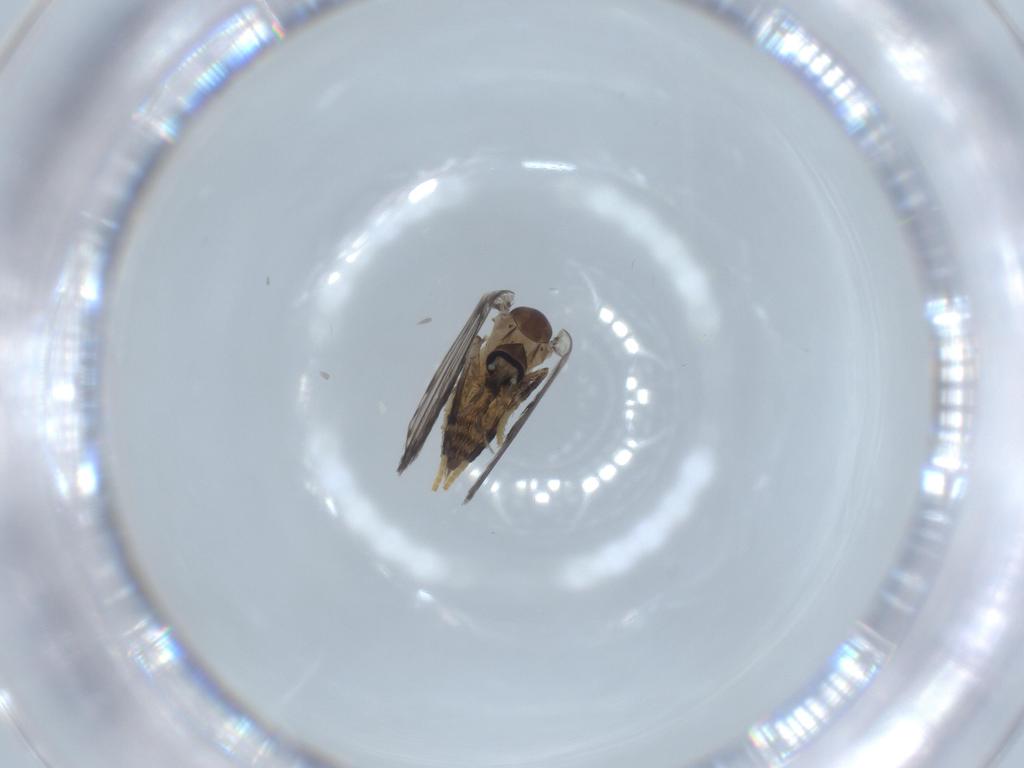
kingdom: Animalia
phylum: Arthropoda
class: Insecta
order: Diptera
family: Psychodidae
